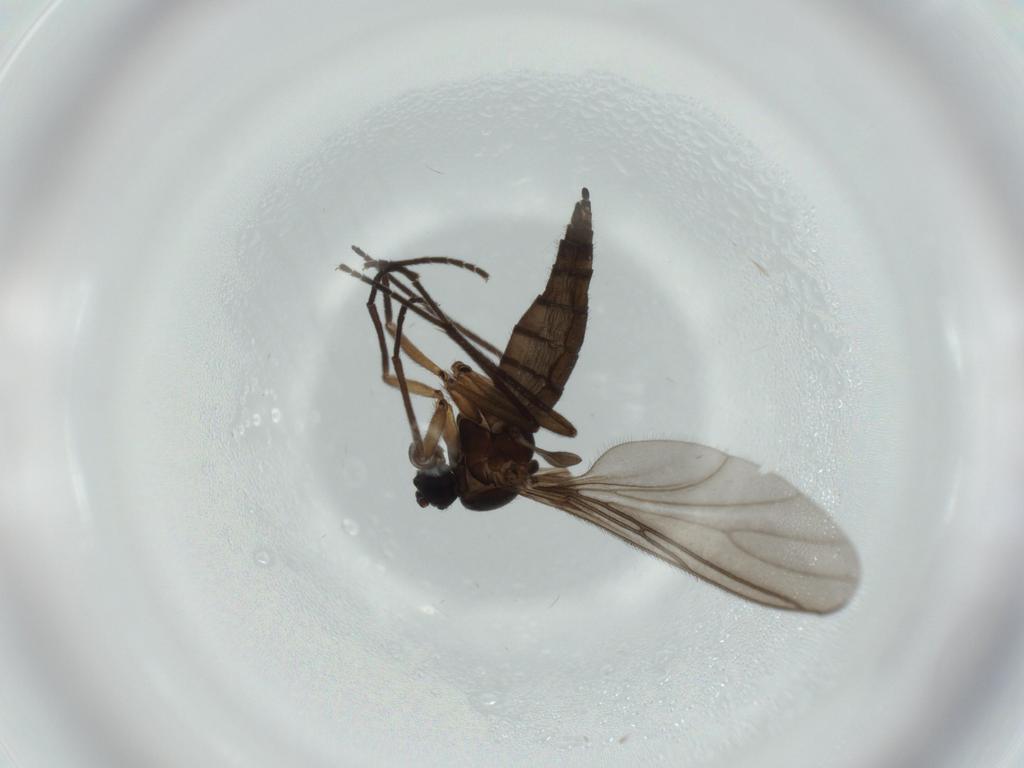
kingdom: Animalia
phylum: Arthropoda
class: Insecta
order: Diptera
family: Sciaridae
